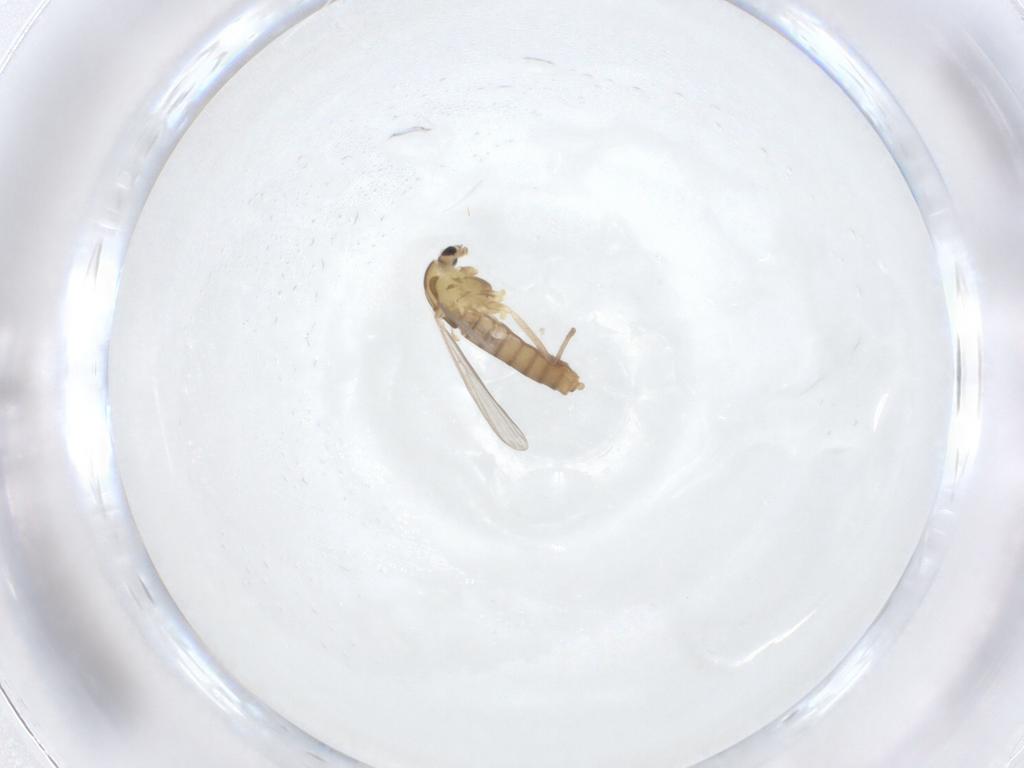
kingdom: Animalia
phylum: Arthropoda
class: Insecta
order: Diptera
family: Chironomidae
